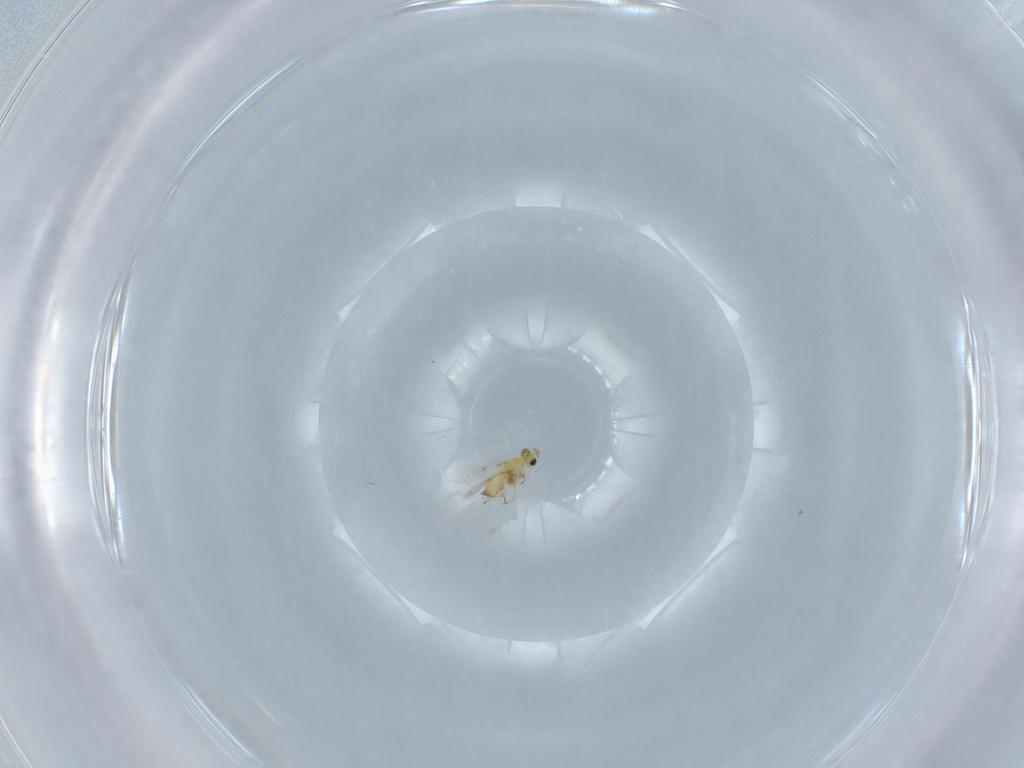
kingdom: Animalia
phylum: Arthropoda
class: Insecta
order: Hymenoptera
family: Trichogrammatidae
